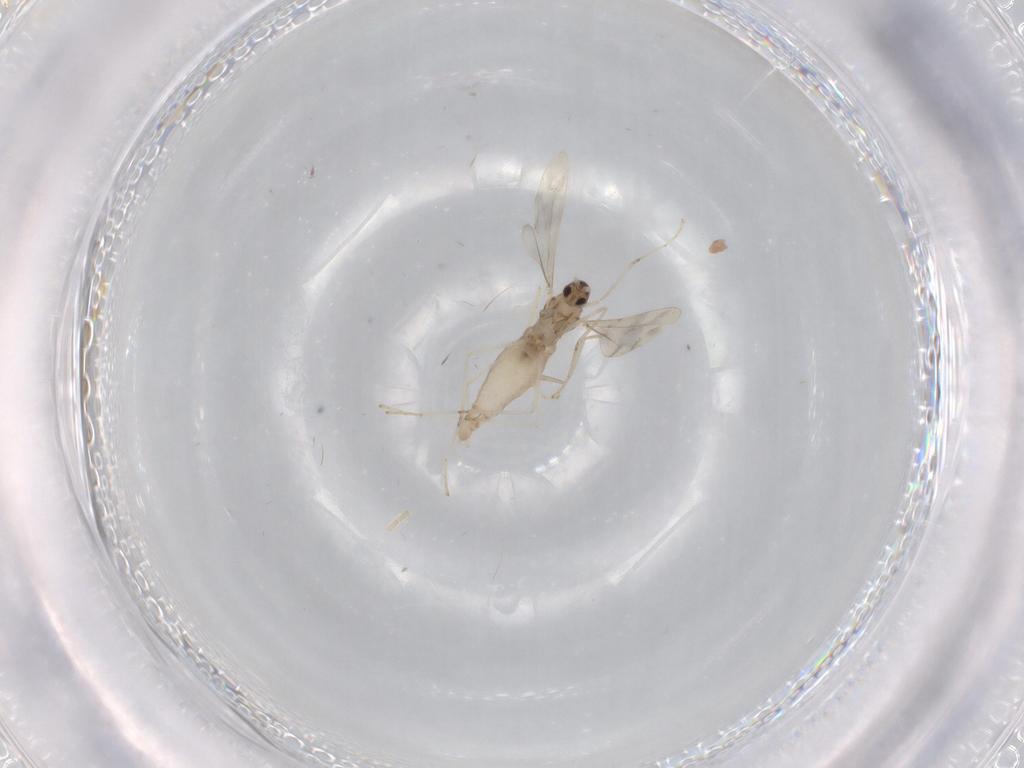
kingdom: Animalia
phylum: Arthropoda
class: Insecta
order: Diptera
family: Cecidomyiidae
